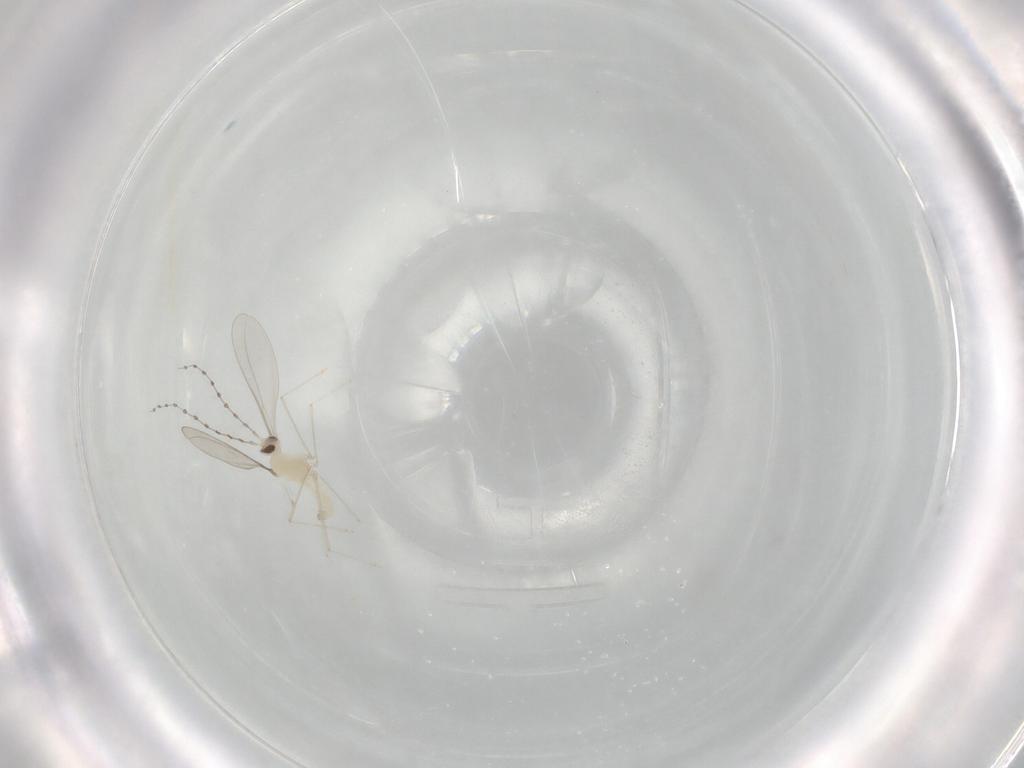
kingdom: Animalia
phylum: Arthropoda
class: Insecta
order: Diptera
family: Cecidomyiidae
